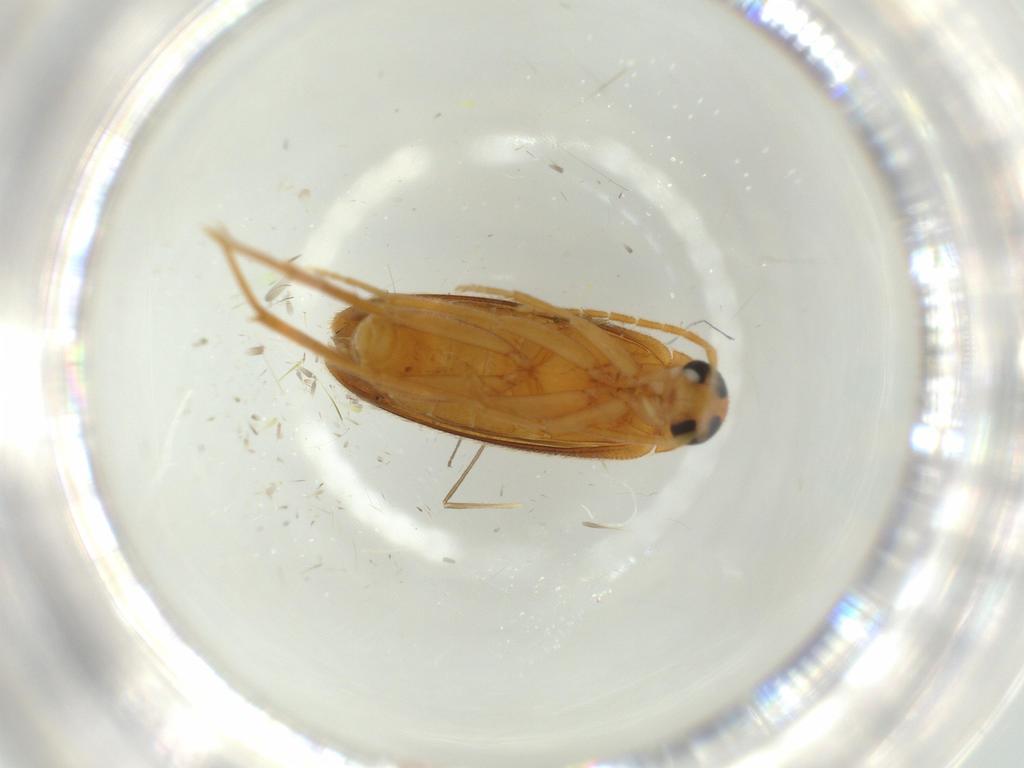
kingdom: Animalia
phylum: Arthropoda
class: Insecta
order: Coleoptera
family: Scraptiidae
